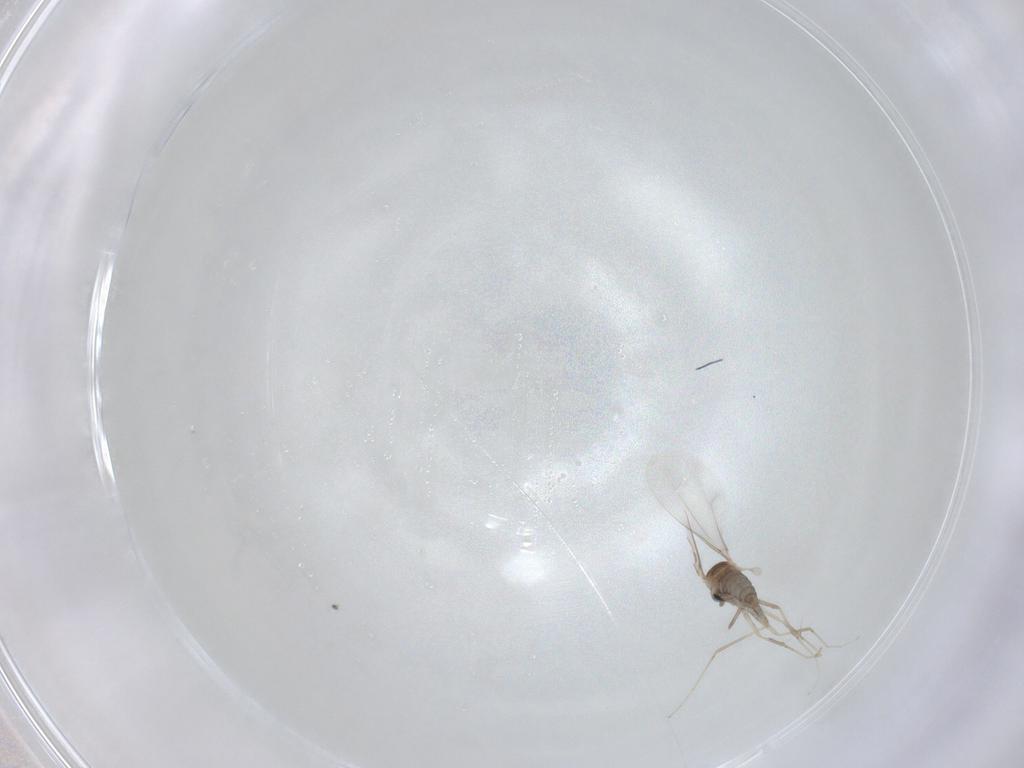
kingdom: Animalia
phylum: Arthropoda
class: Insecta
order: Diptera
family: Cecidomyiidae
